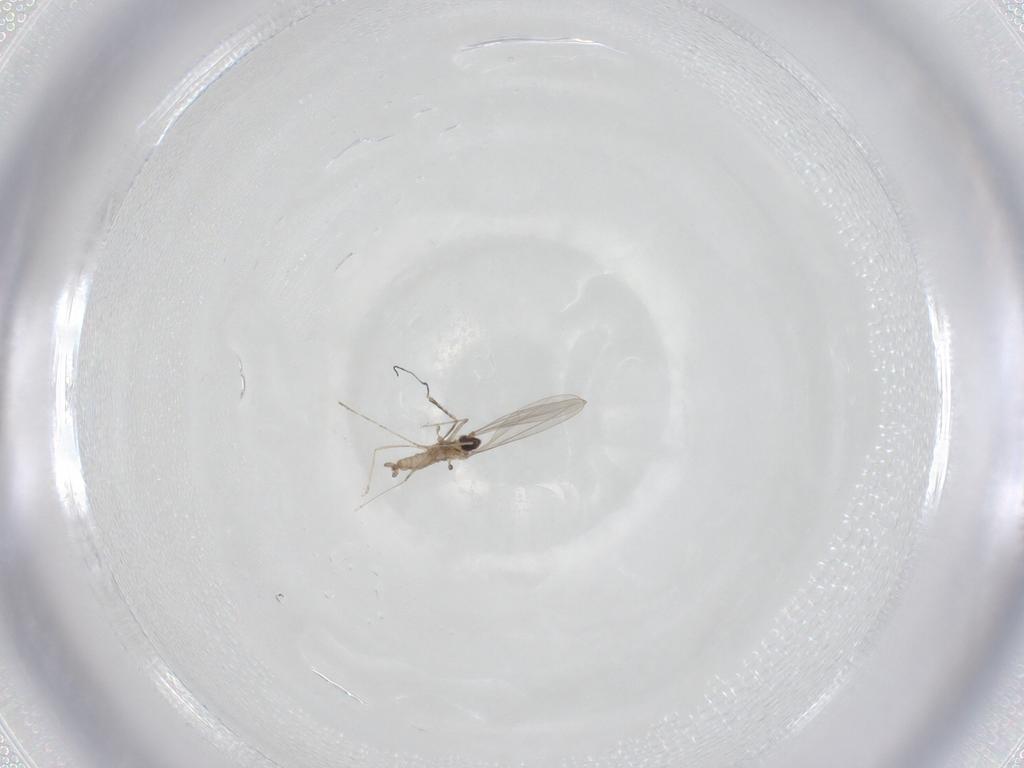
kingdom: Animalia
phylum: Arthropoda
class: Insecta
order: Diptera
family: Cecidomyiidae
